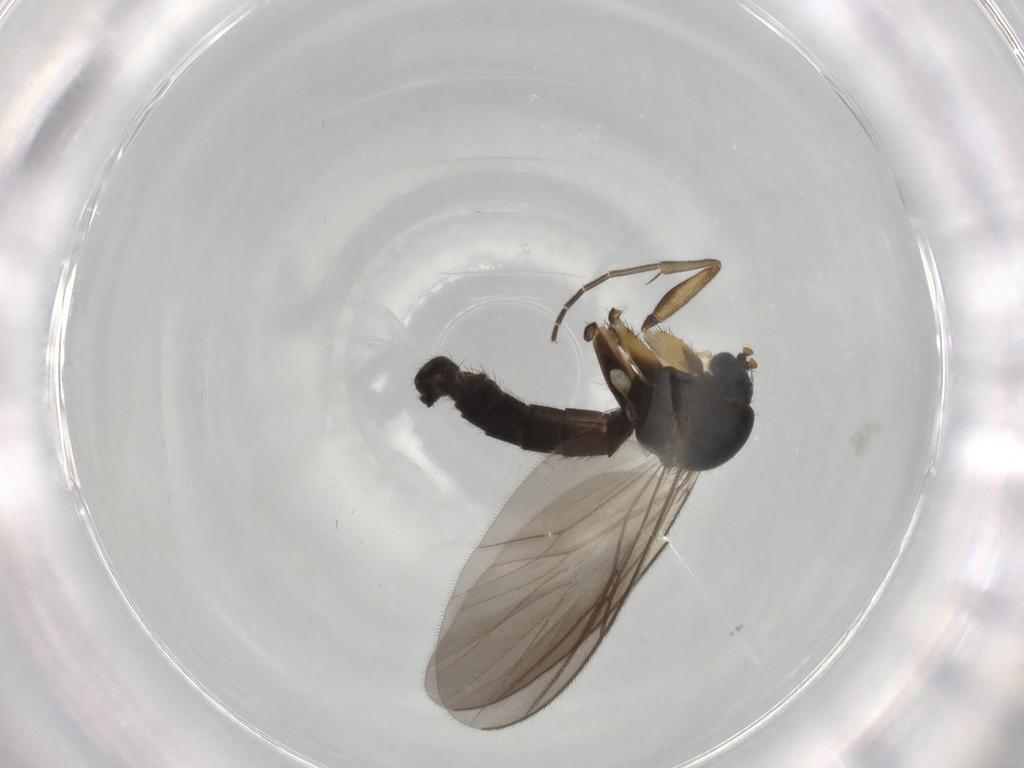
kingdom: Animalia
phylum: Arthropoda
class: Insecta
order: Diptera
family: Mycetophilidae
